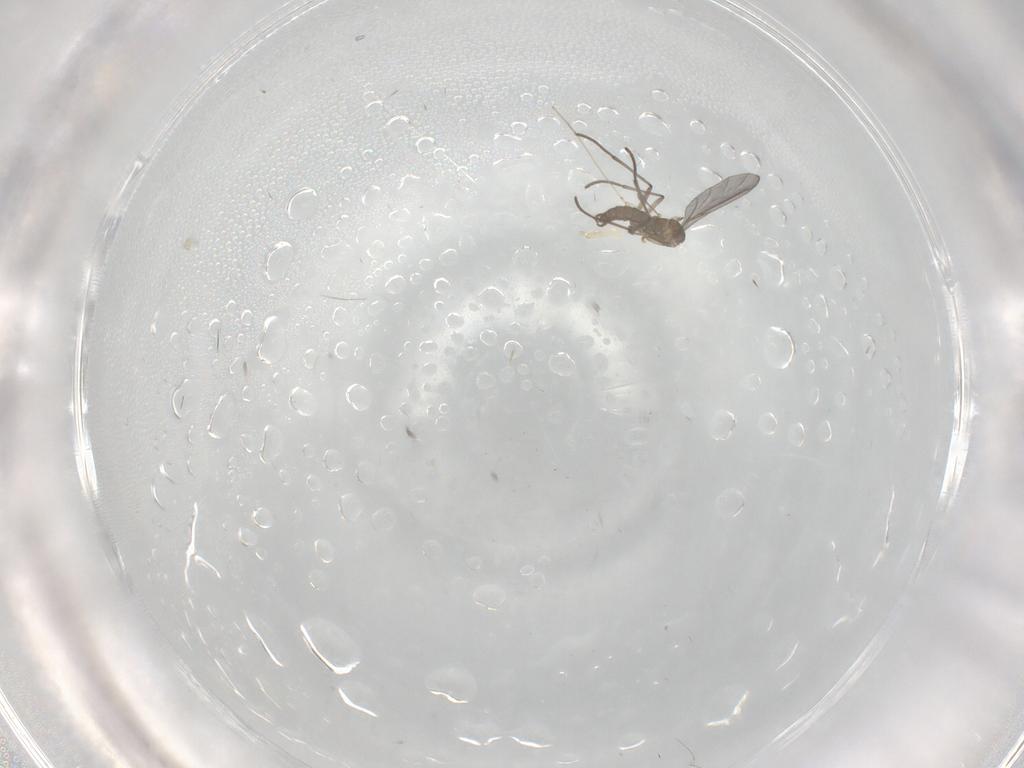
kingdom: Animalia
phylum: Arthropoda
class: Insecta
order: Diptera
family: Sciaridae
